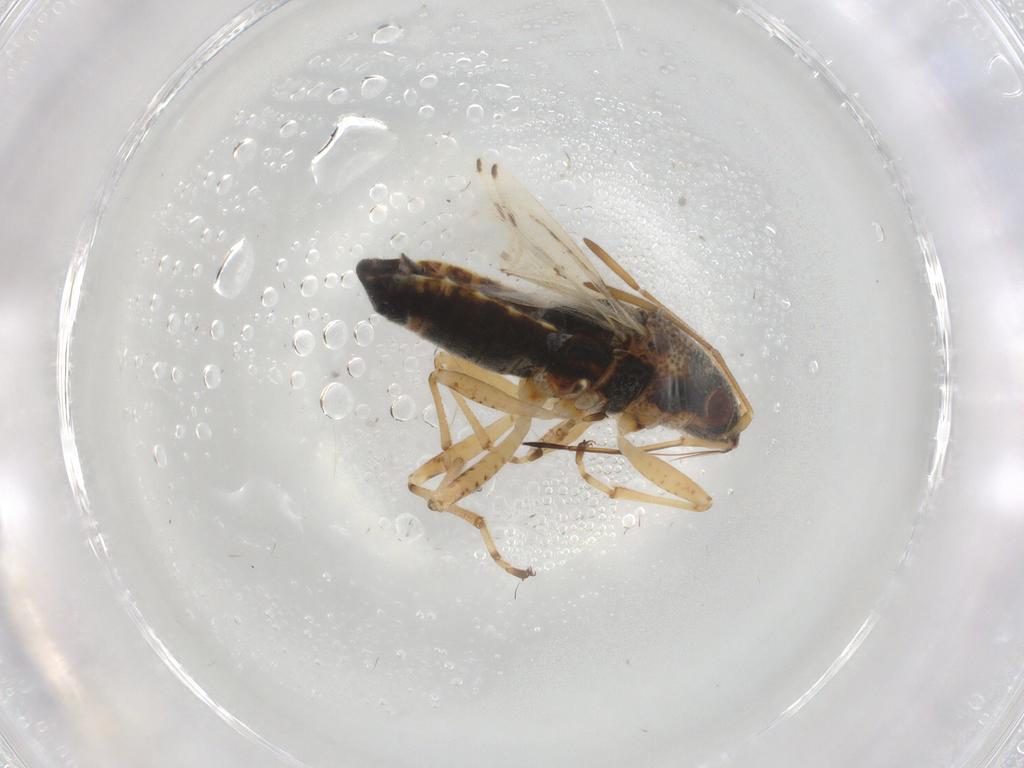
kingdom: Animalia
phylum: Arthropoda
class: Insecta
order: Hemiptera
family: Lygaeidae
